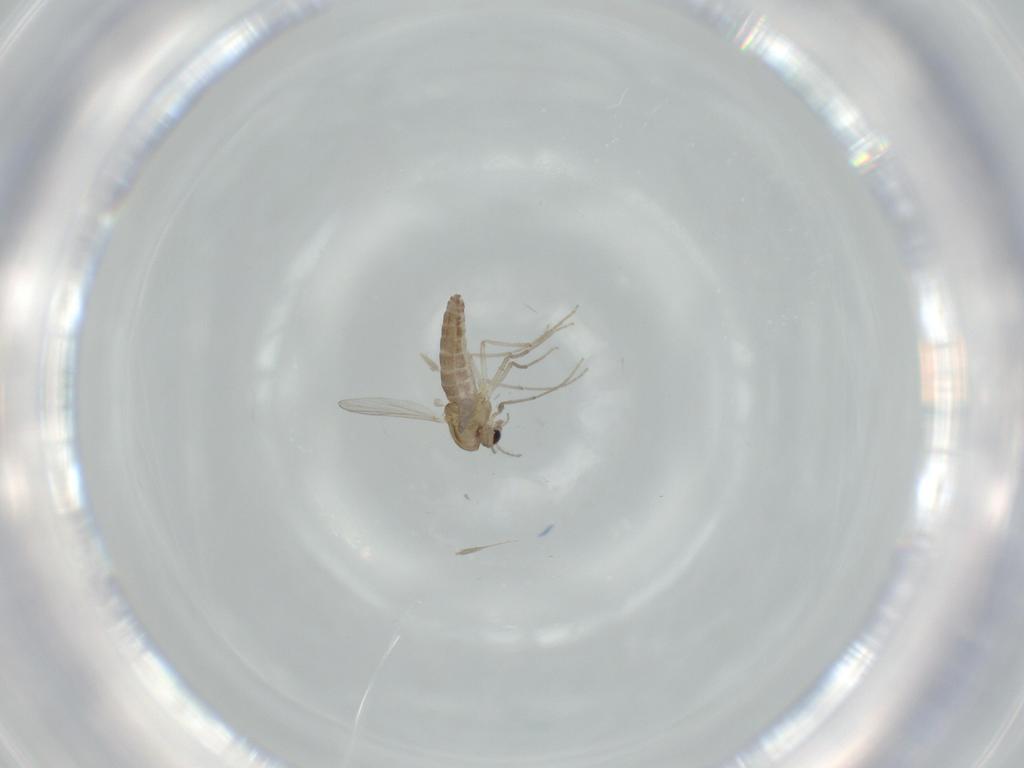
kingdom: Animalia
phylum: Arthropoda
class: Insecta
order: Diptera
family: Chironomidae
